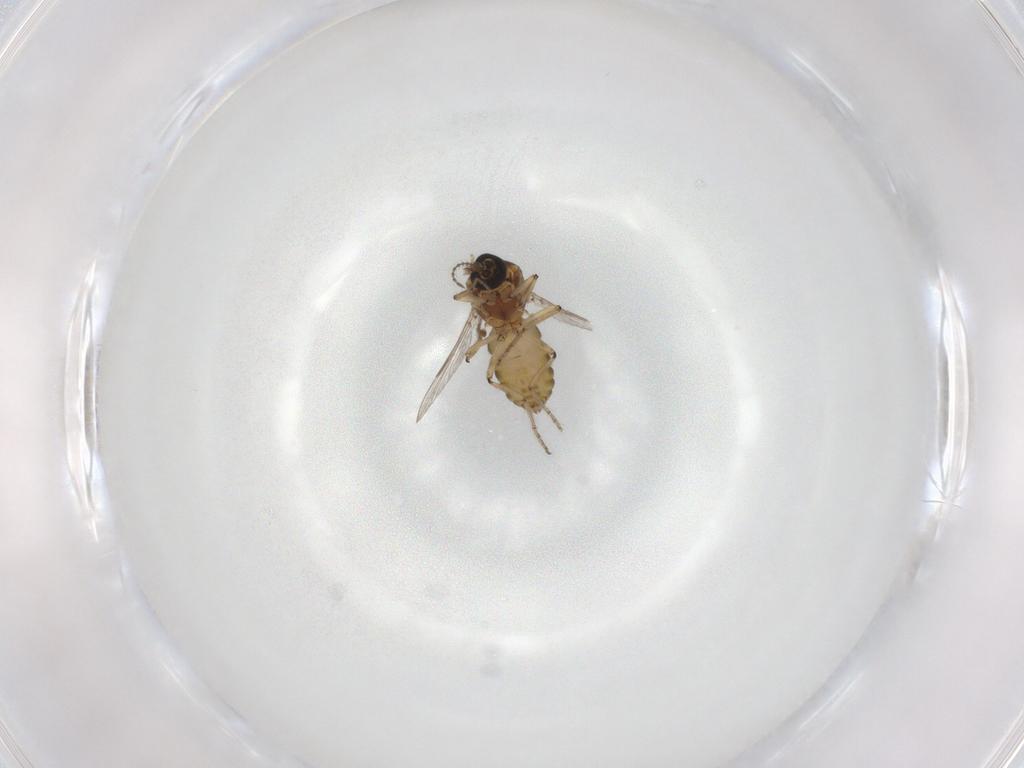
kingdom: Animalia
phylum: Arthropoda
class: Insecta
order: Diptera
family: Ceratopogonidae
